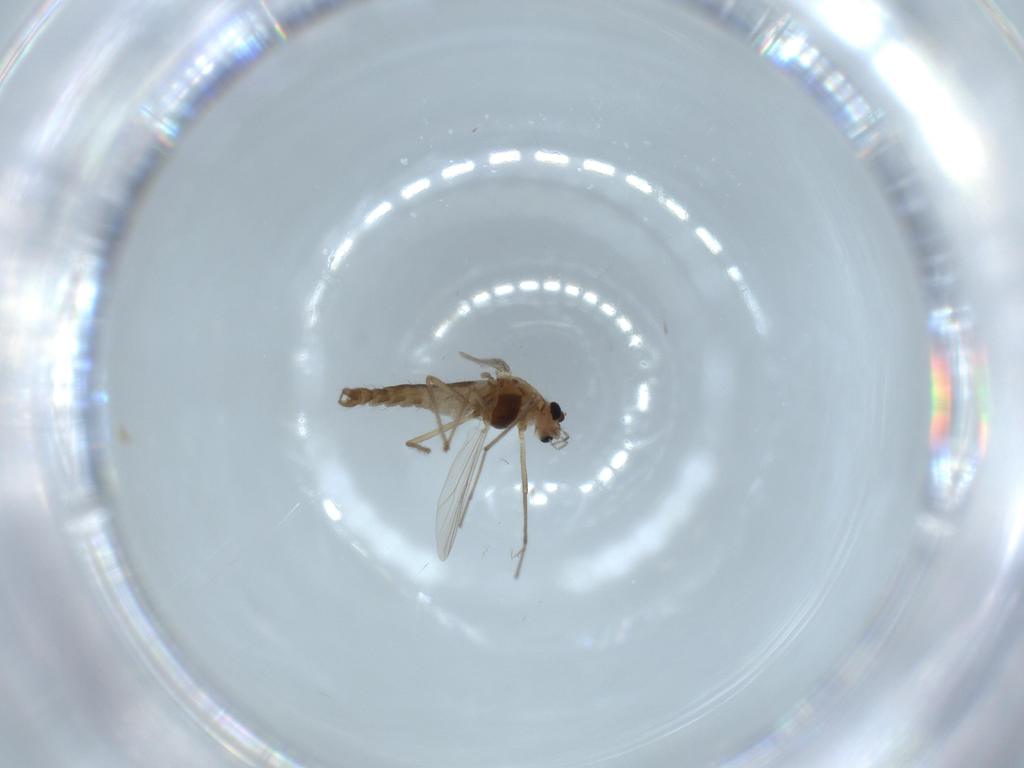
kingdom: Animalia
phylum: Arthropoda
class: Insecta
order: Diptera
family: Chironomidae
